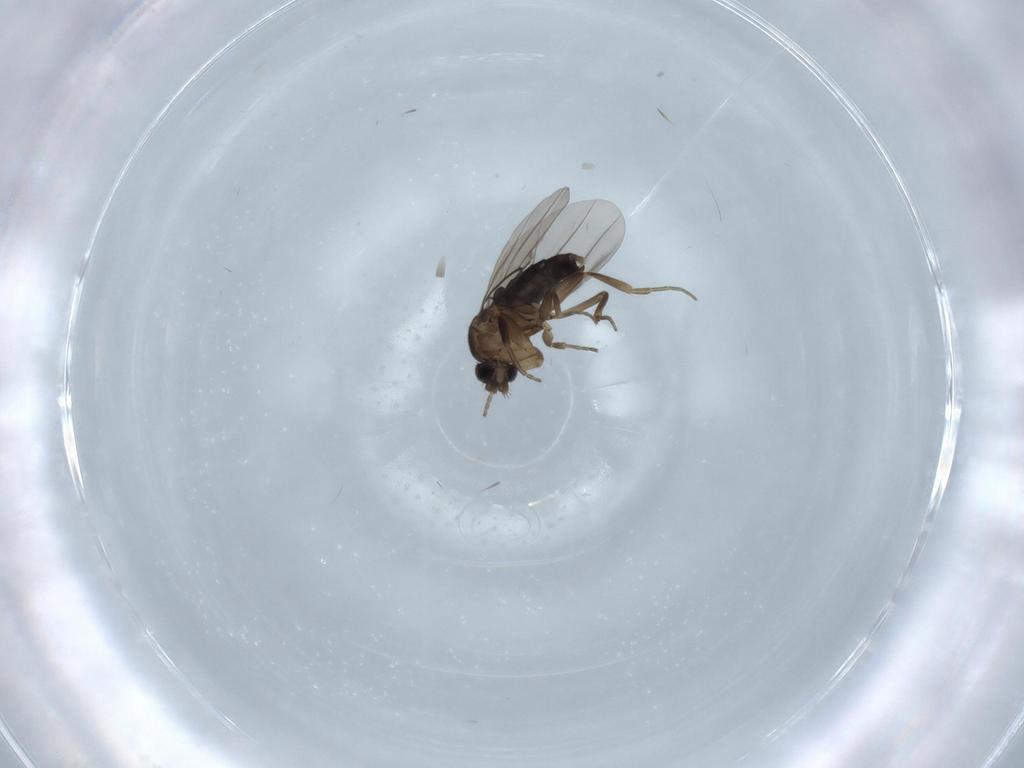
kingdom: Animalia
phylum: Arthropoda
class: Insecta
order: Diptera
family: Phoridae
